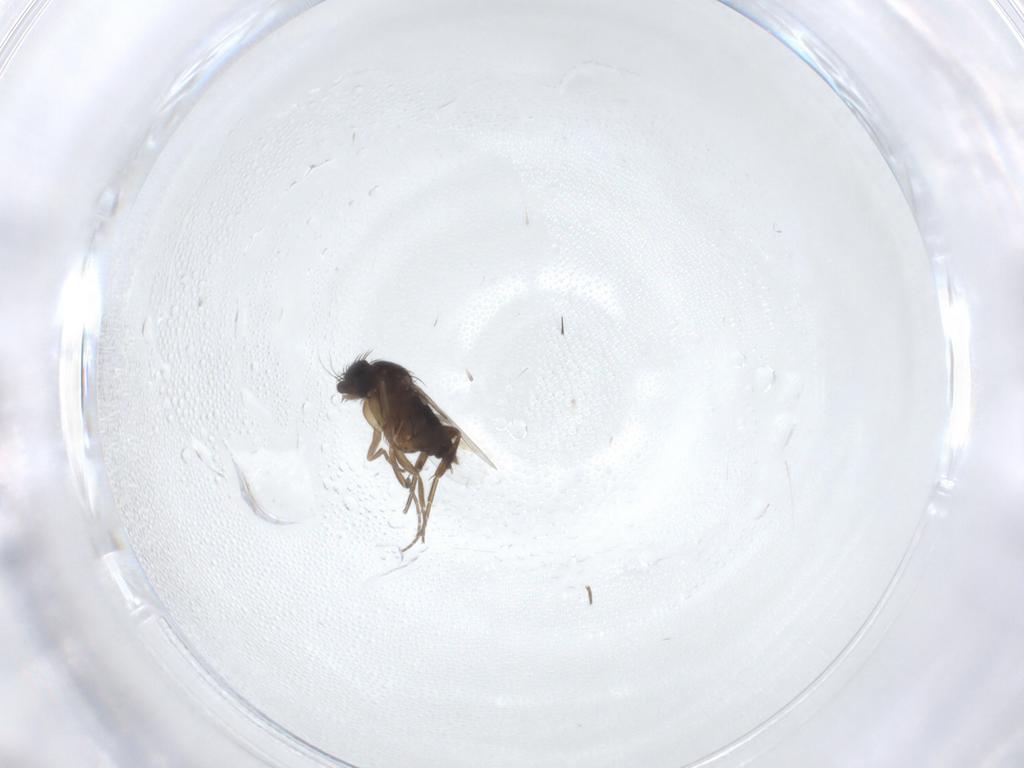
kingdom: Animalia
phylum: Arthropoda
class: Insecta
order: Diptera
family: Phoridae
